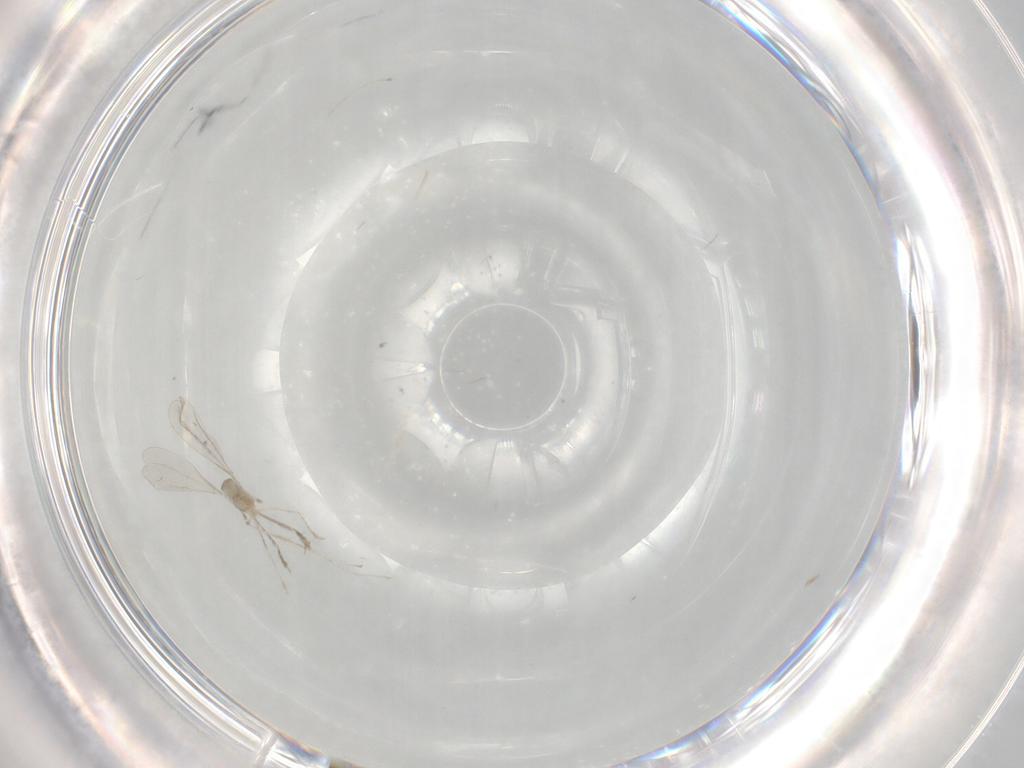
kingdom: Animalia
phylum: Arthropoda
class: Insecta
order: Diptera
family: Cecidomyiidae
